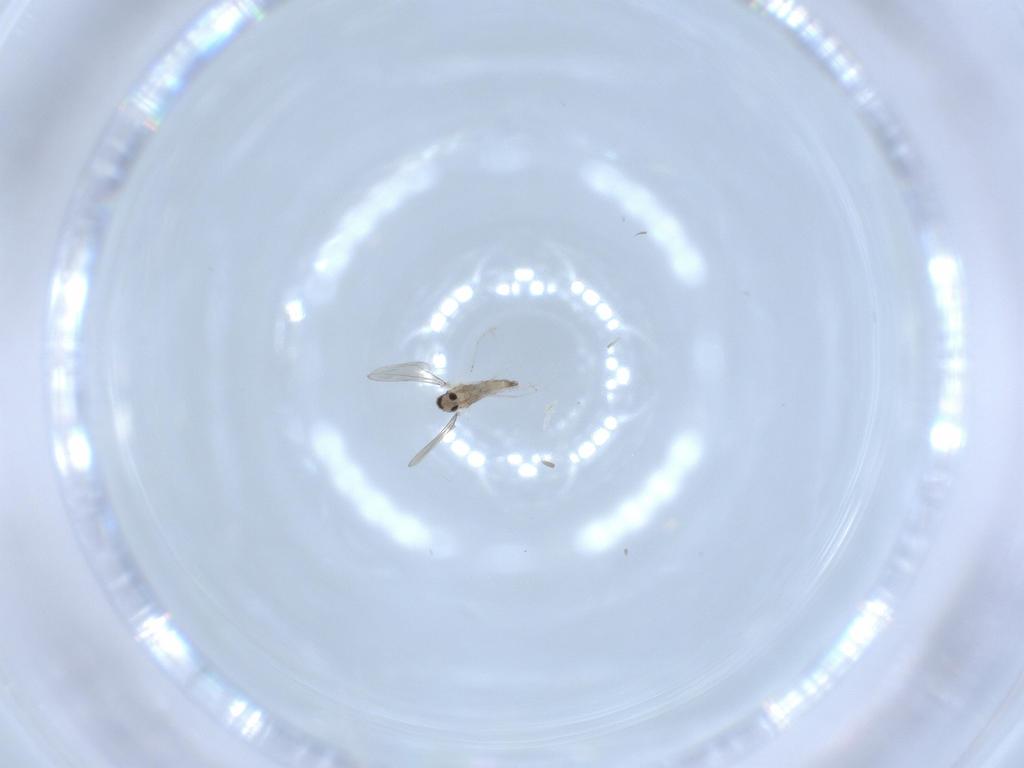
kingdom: Animalia
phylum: Arthropoda
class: Insecta
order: Diptera
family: Cecidomyiidae
